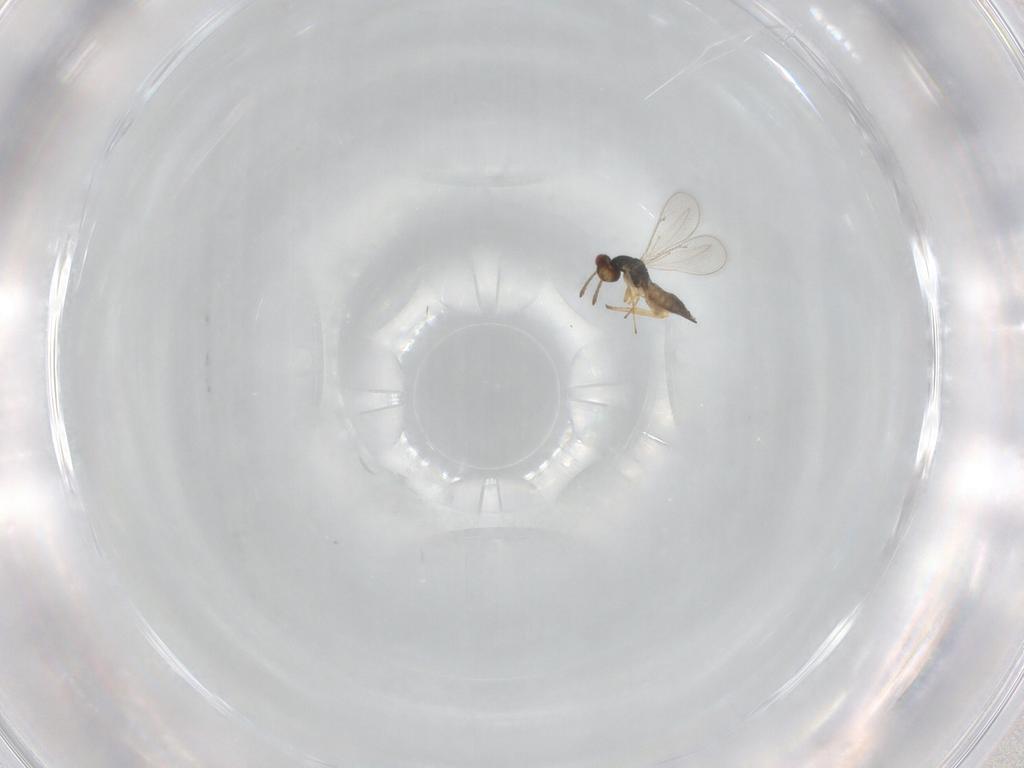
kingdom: Animalia
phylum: Arthropoda
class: Insecta
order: Hymenoptera
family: Eulophidae
